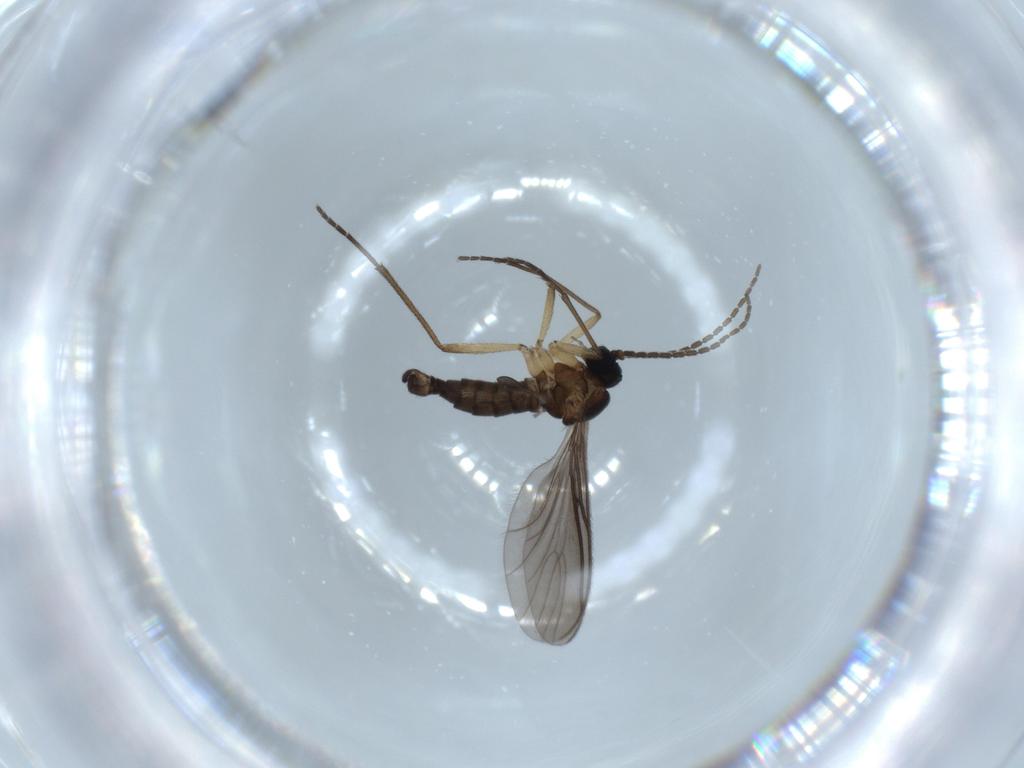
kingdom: Animalia
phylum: Arthropoda
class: Insecta
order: Diptera
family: Sciaridae
